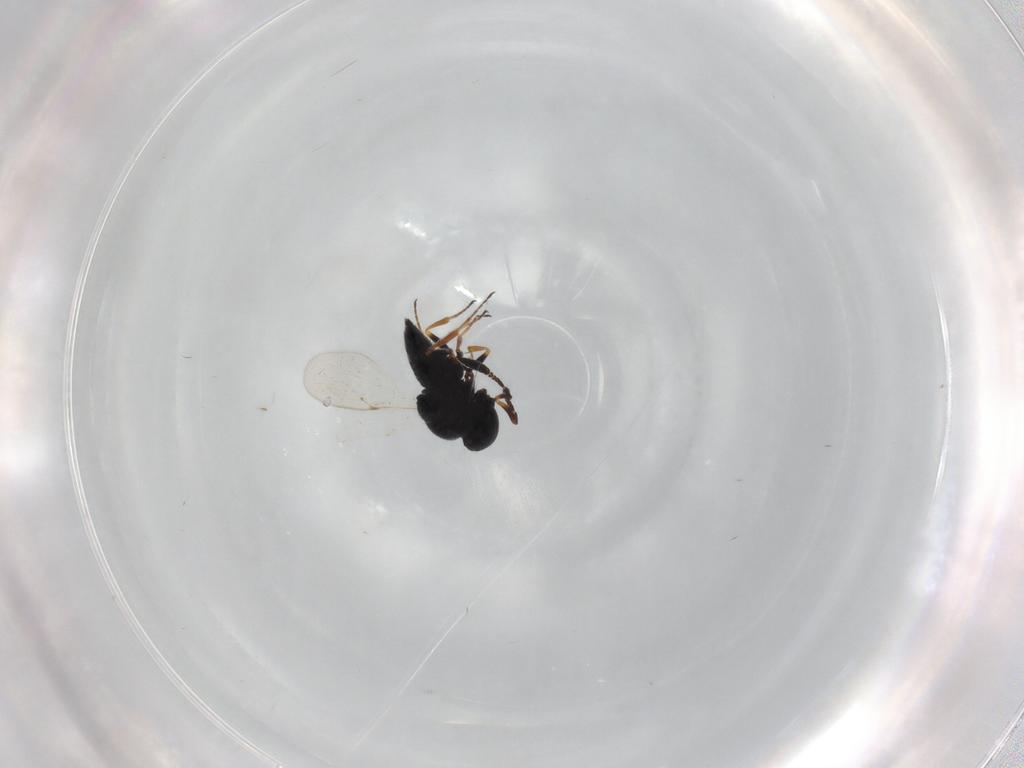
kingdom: Animalia
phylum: Arthropoda
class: Insecta
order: Coleoptera
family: Curculionidae
